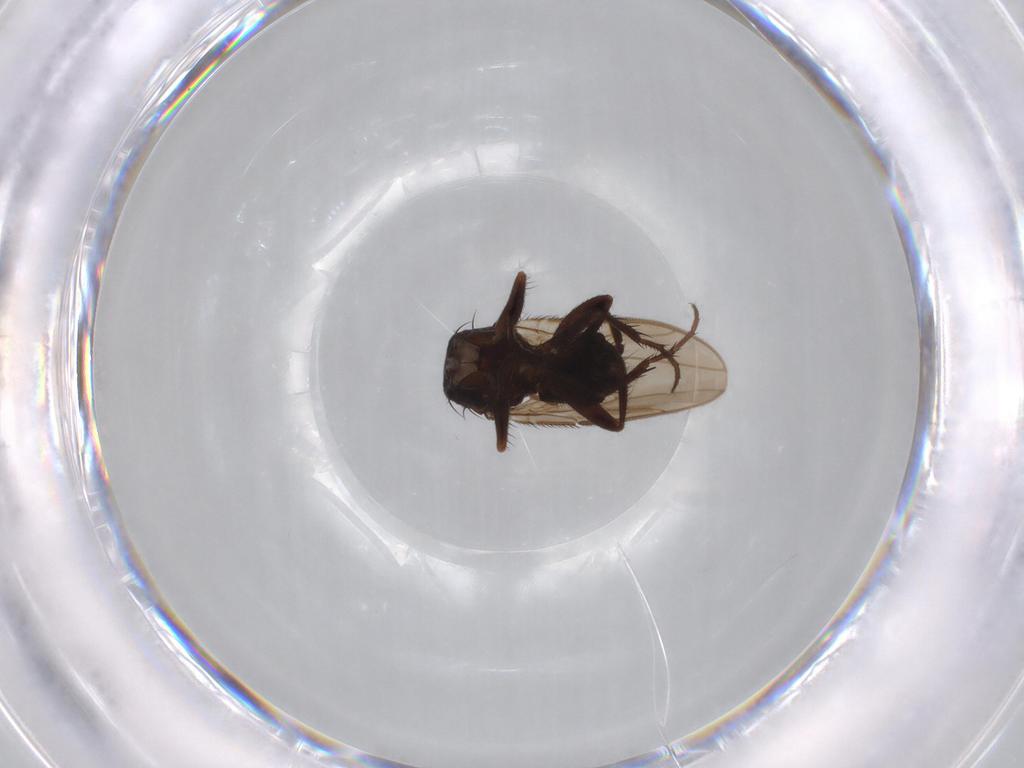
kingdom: Animalia
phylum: Arthropoda
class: Insecta
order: Diptera
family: Sphaeroceridae
